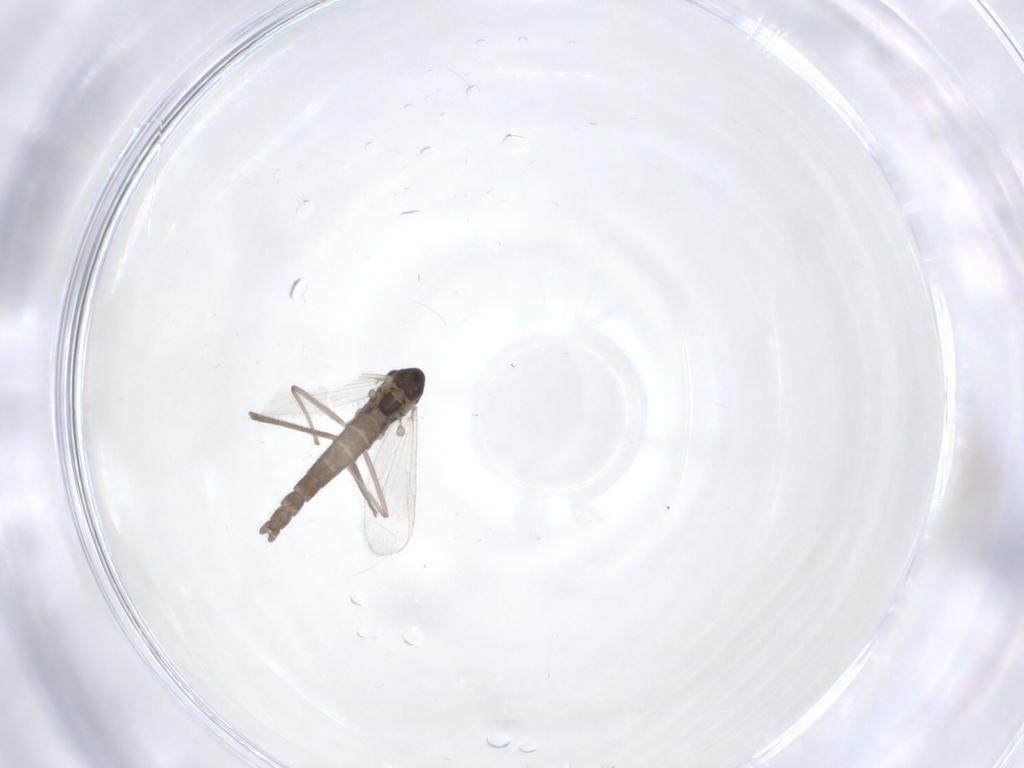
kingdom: Animalia
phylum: Arthropoda
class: Insecta
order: Diptera
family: Chironomidae
